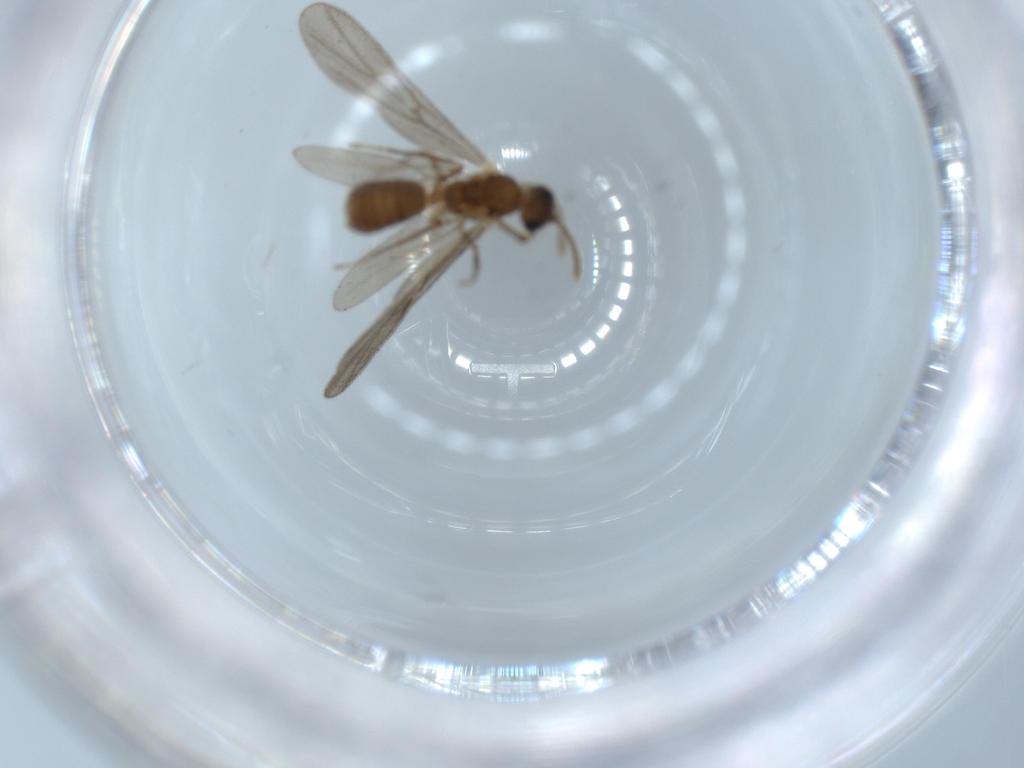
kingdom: Animalia
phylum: Arthropoda
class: Insecta
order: Hymenoptera
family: Formicidae
